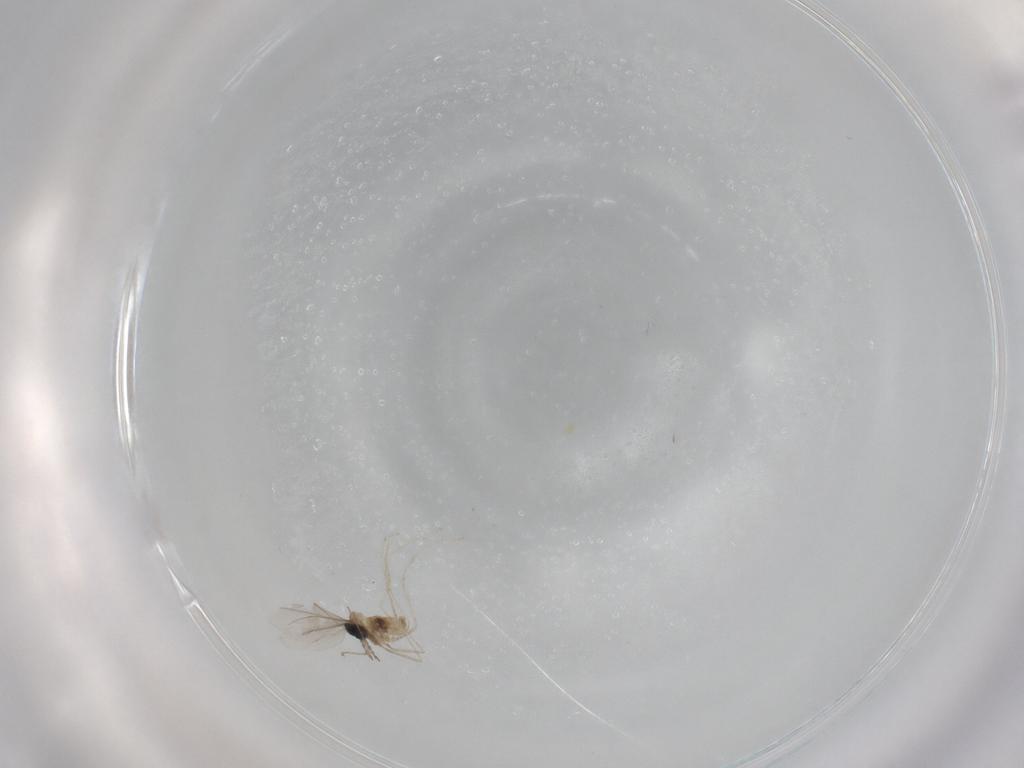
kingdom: Animalia
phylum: Arthropoda
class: Insecta
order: Diptera
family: Cecidomyiidae
